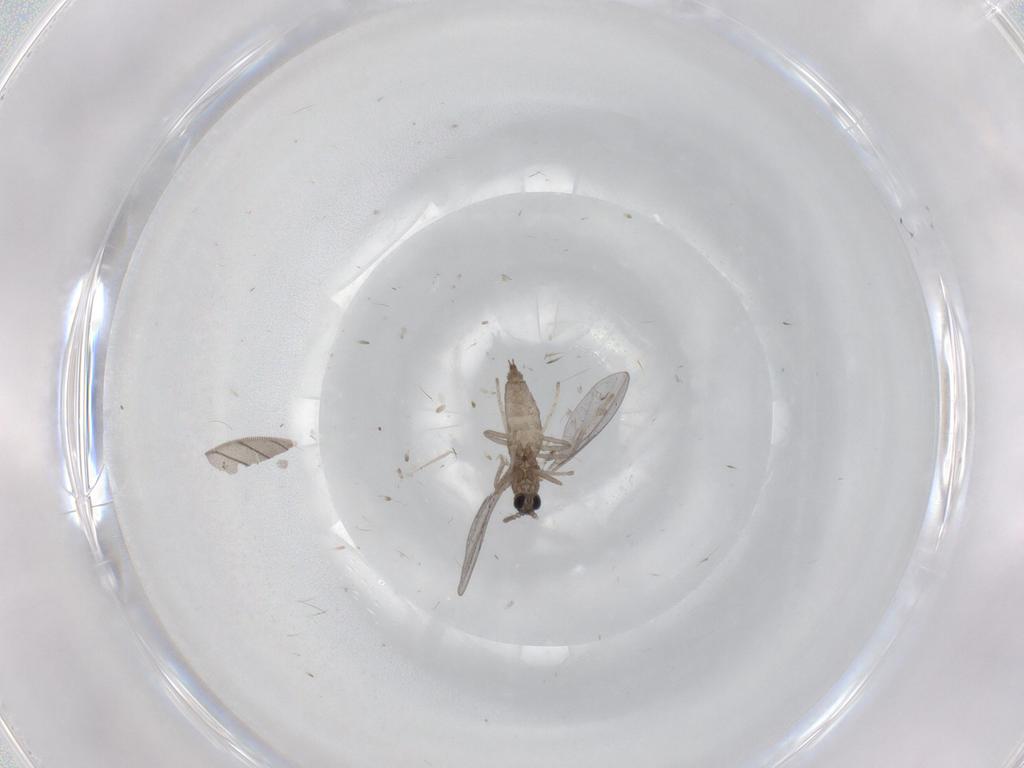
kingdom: Animalia
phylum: Arthropoda
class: Insecta
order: Diptera
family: Cecidomyiidae
